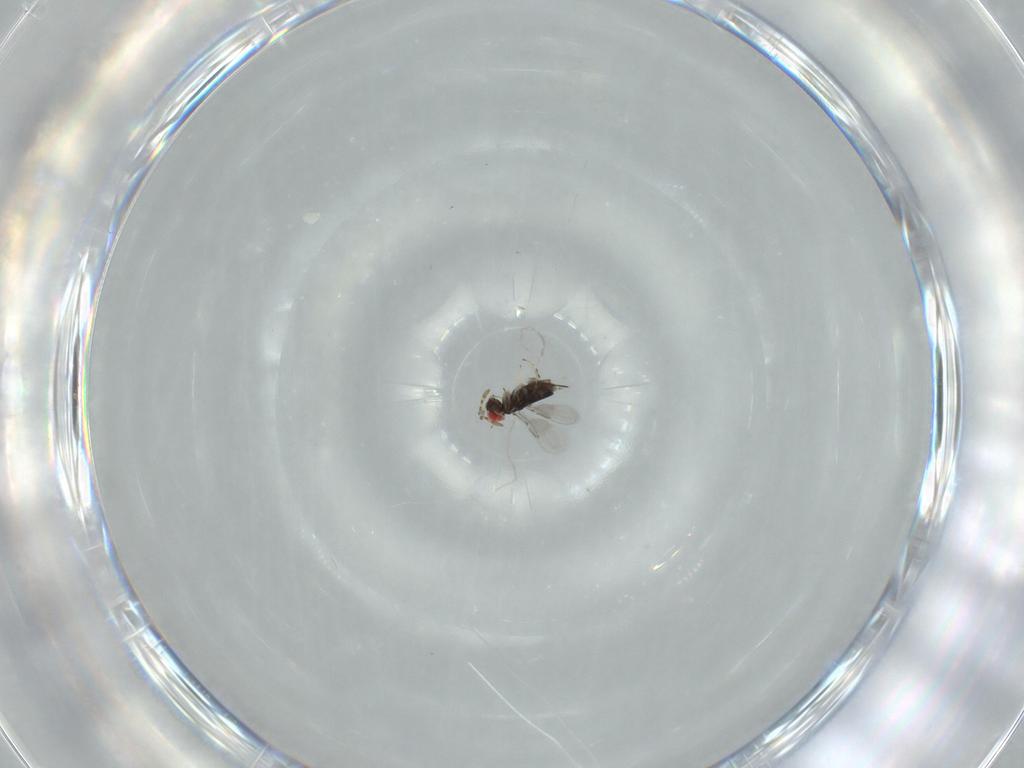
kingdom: Animalia
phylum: Arthropoda
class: Insecta
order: Hymenoptera
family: Azotidae
